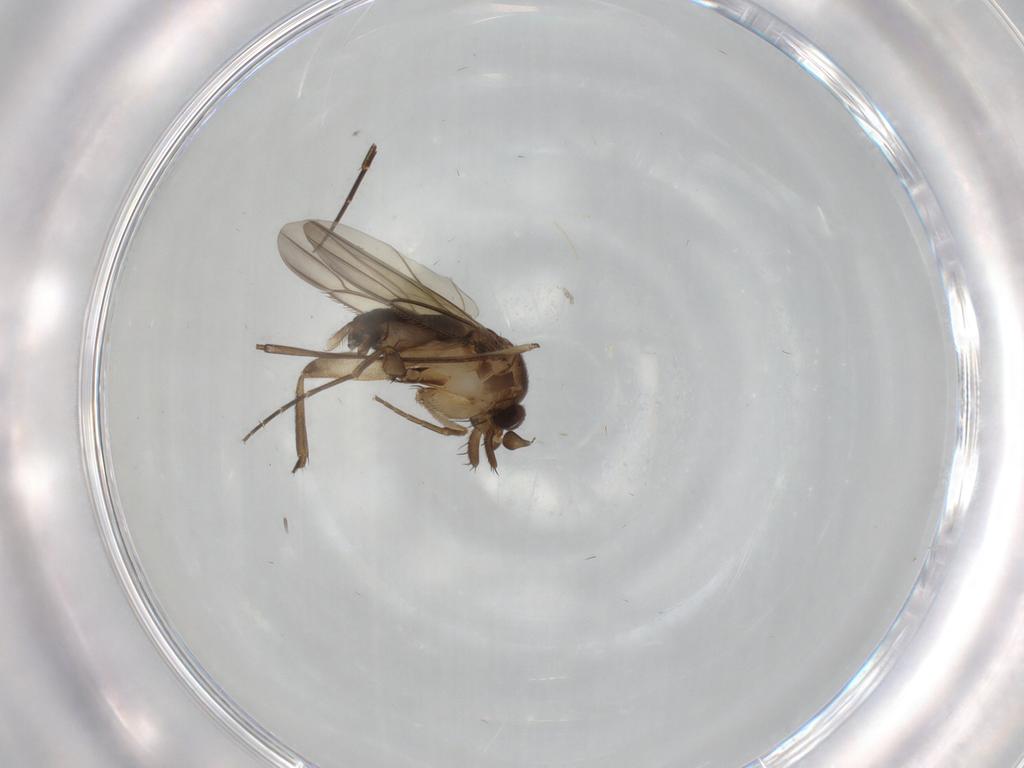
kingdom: Animalia
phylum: Arthropoda
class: Insecta
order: Diptera
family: Phoridae
